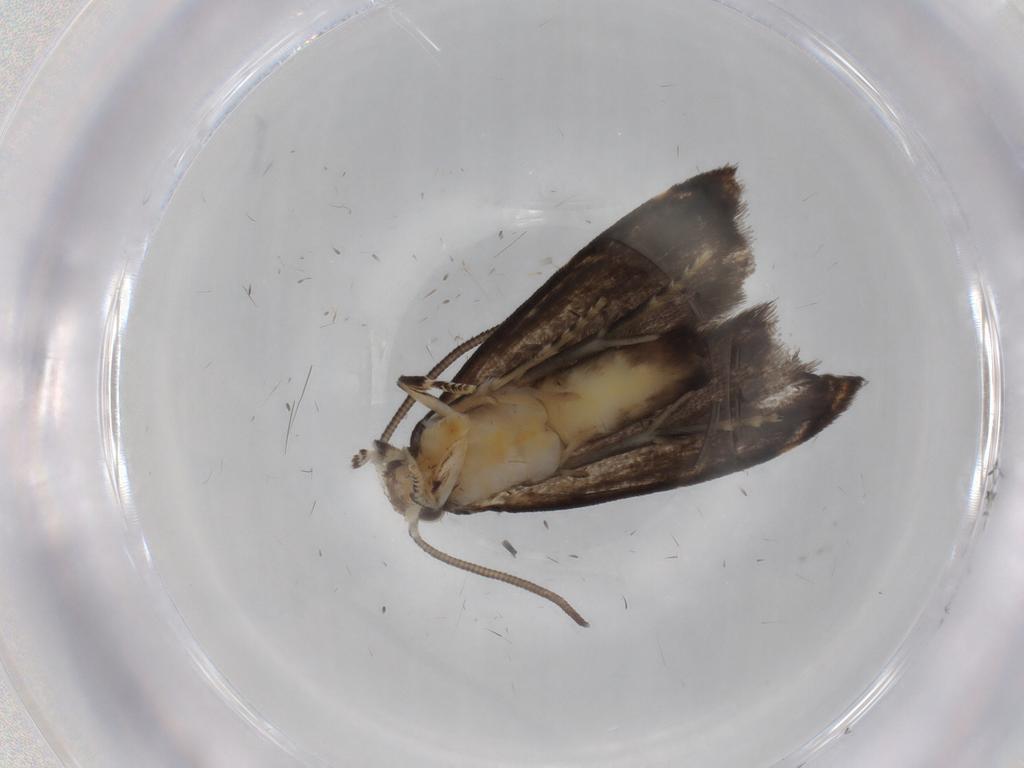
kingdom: Animalia
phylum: Arthropoda
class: Insecta
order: Lepidoptera
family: Dryadaulidae
